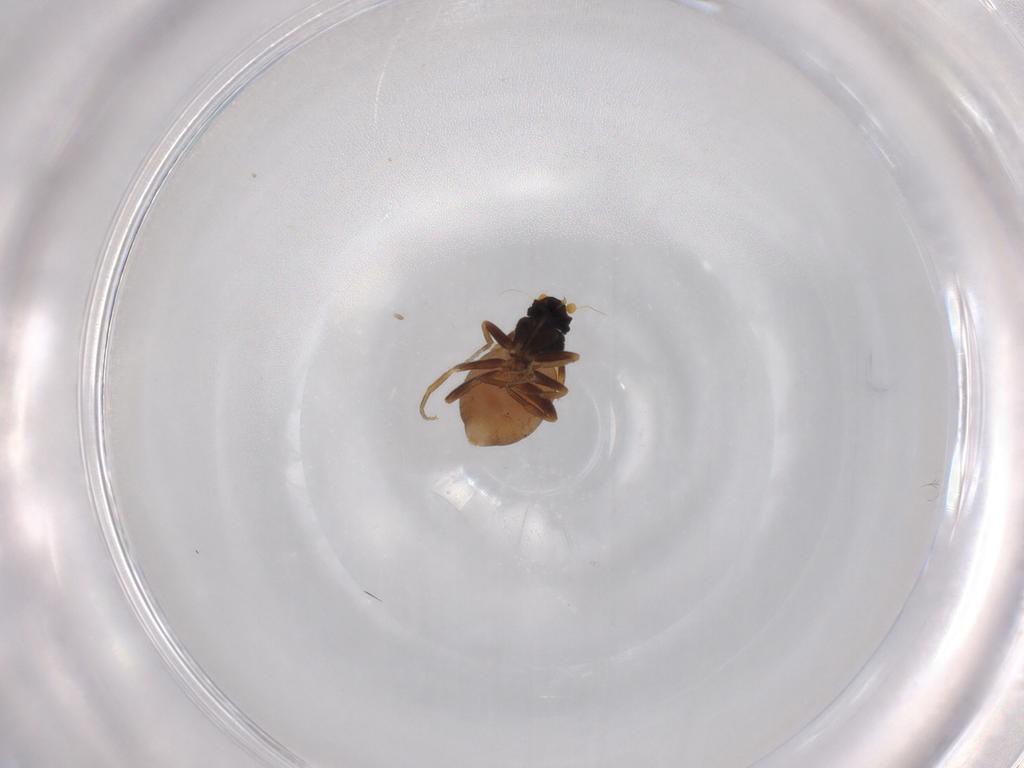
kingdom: Animalia
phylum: Arthropoda
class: Insecta
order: Diptera
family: Phoridae
